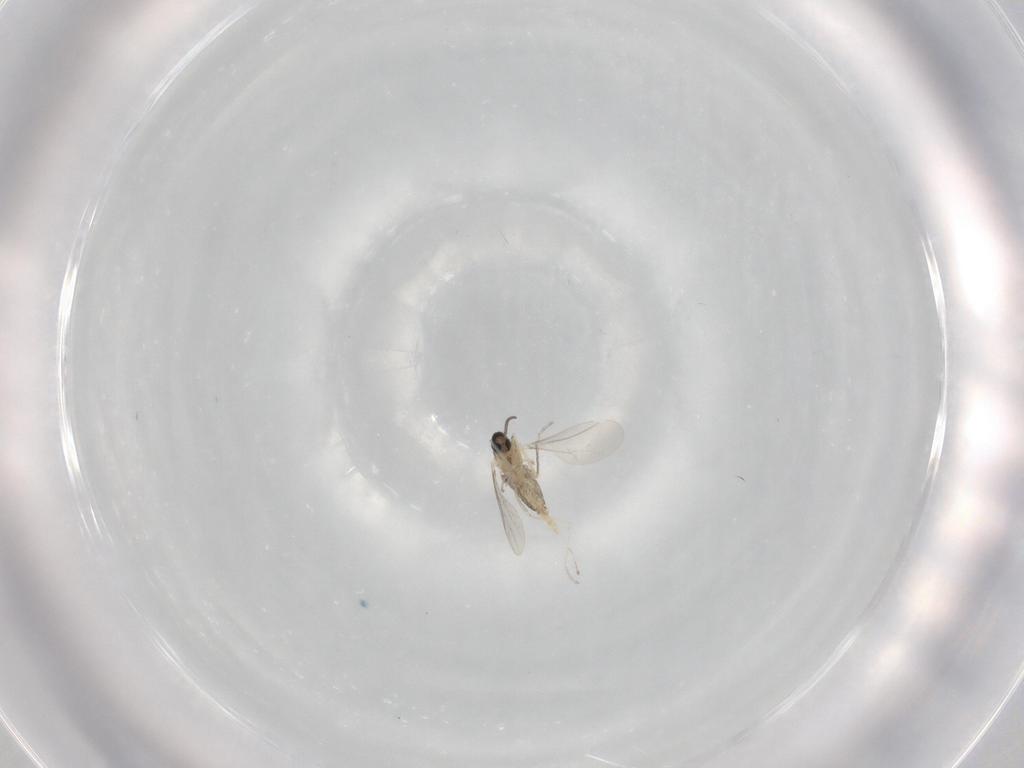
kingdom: Animalia
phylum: Arthropoda
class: Insecta
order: Diptera
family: Cecidomyiidae
